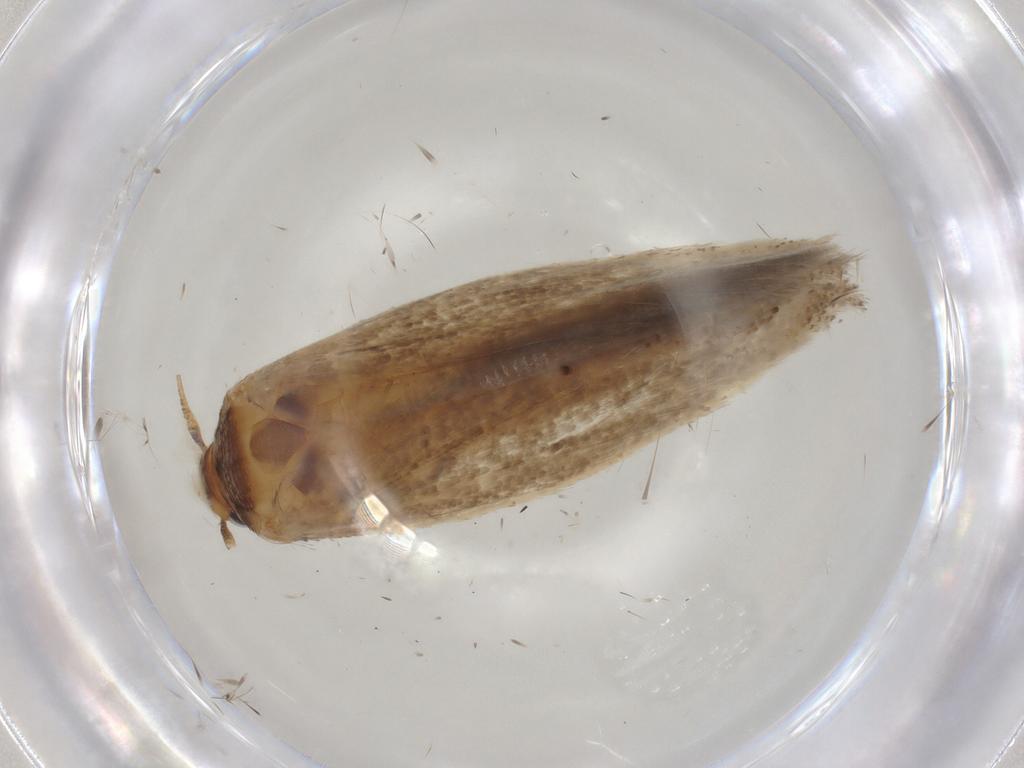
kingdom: Animalia
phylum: Arthropoda
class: Insecta
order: Lepidoptera
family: Momphidae
